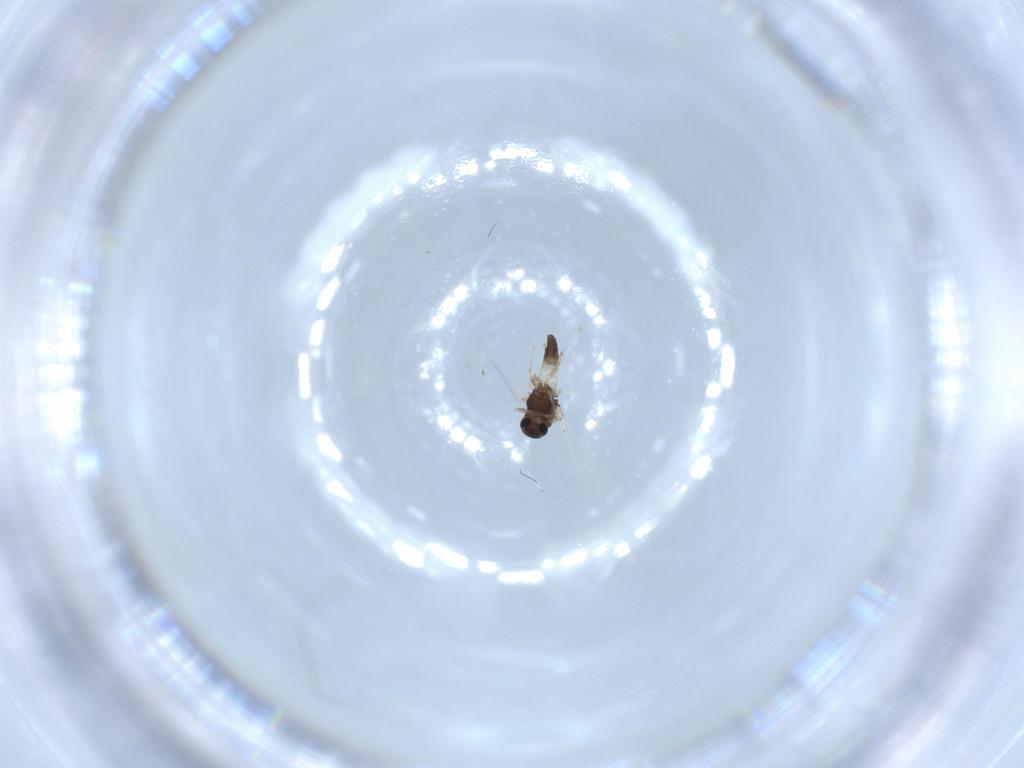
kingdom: Animalia
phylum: Arthropoda
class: Insecta
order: Diptera
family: Chironomidae
